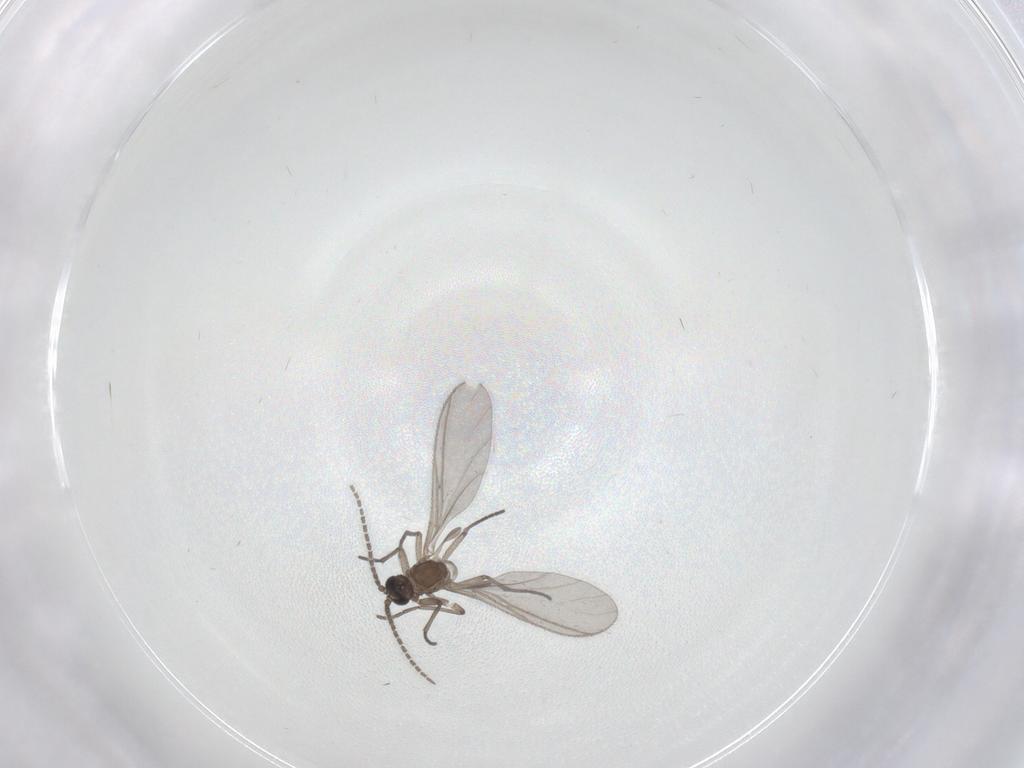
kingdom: Animalia
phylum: Arthropoda
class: Insecta
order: Diptera
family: Sciaridae
